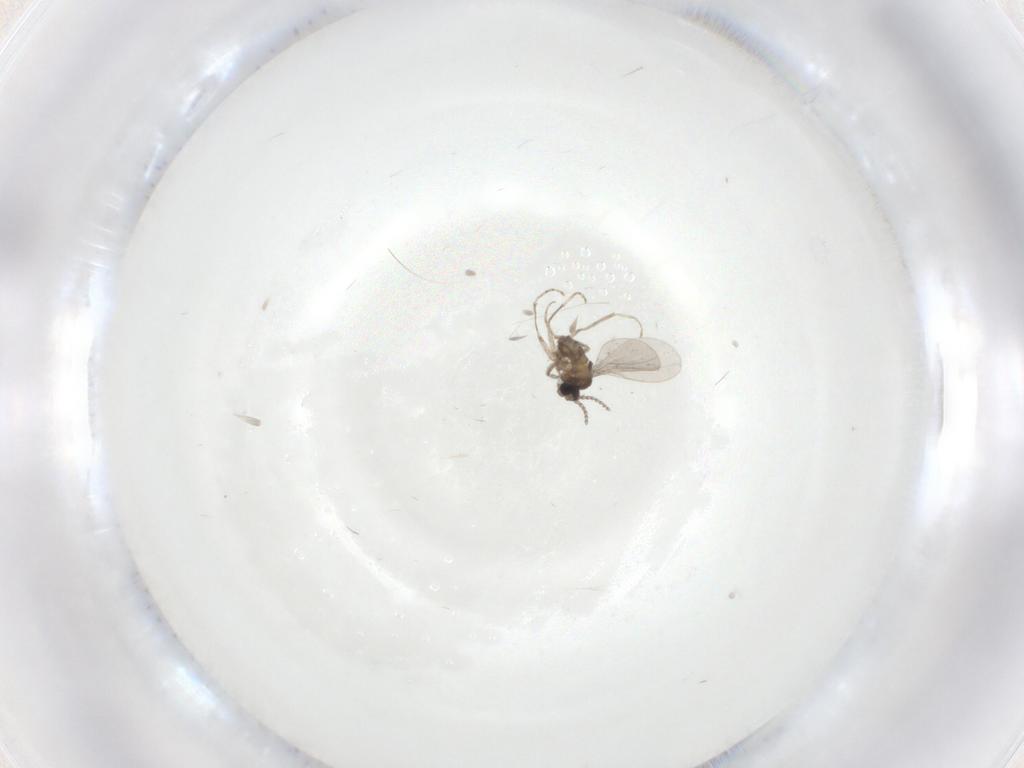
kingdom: Animalia
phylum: Arthropoda
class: Insecta
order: Diptera
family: Cecidomyiidae
